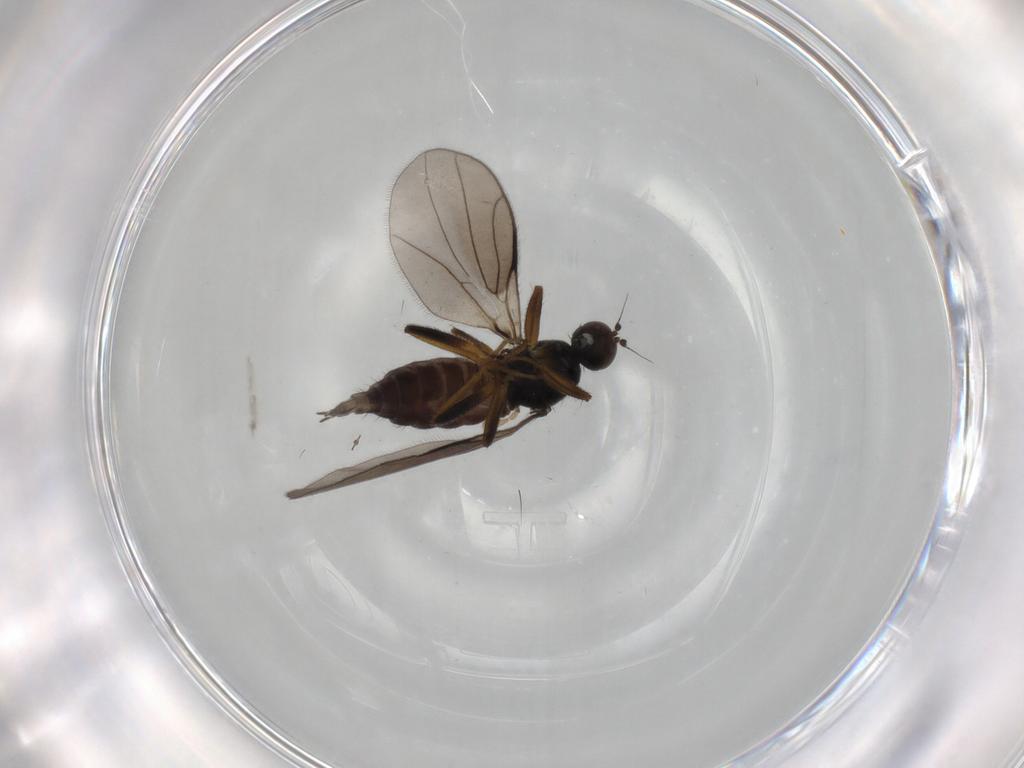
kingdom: Animalia
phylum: Arthropoda
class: Insecta
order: Diptera
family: Hybotidae
